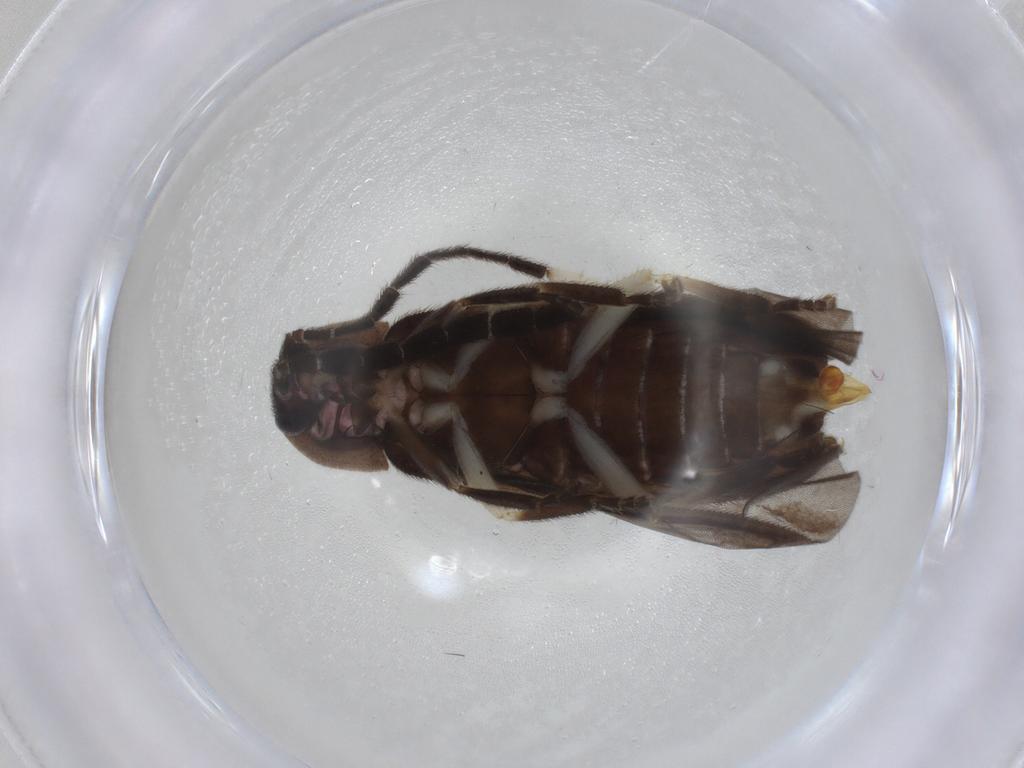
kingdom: Animalia
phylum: Arthropoda
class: Insecta
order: Coleoptera
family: Lampyridae
